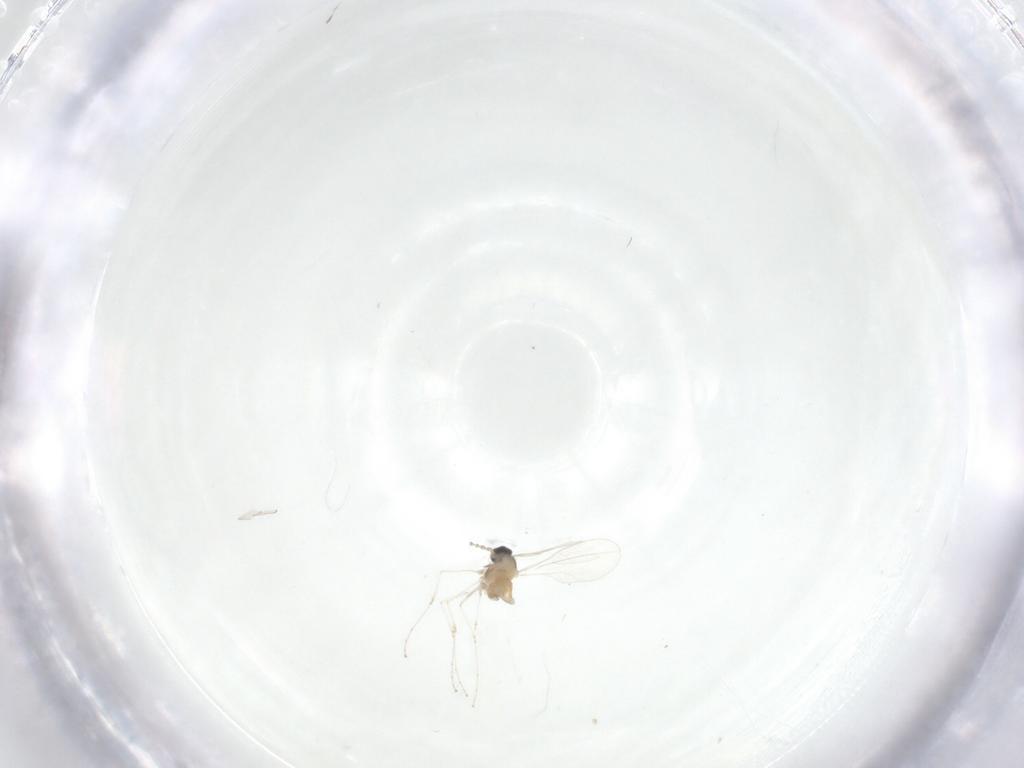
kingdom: Animalia
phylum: Arthropoda
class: Insecta
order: Diptera
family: Cecidomyiidae
